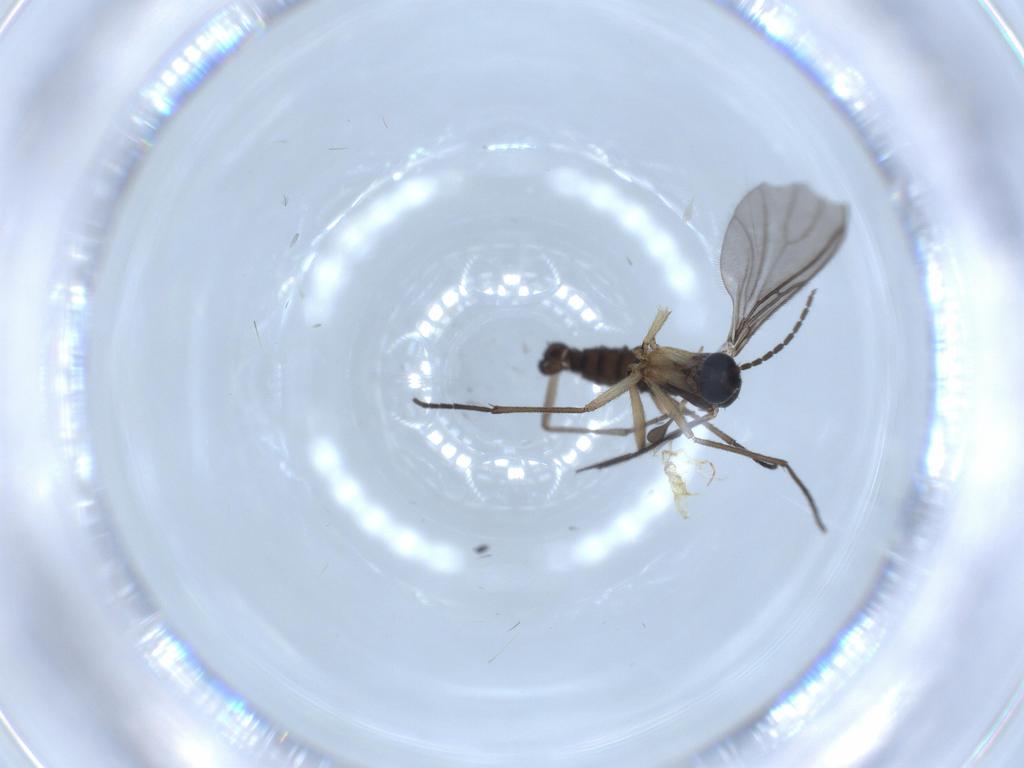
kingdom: Animalia
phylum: Arthropoda
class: Insecta
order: Diptera
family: Sciaridae
